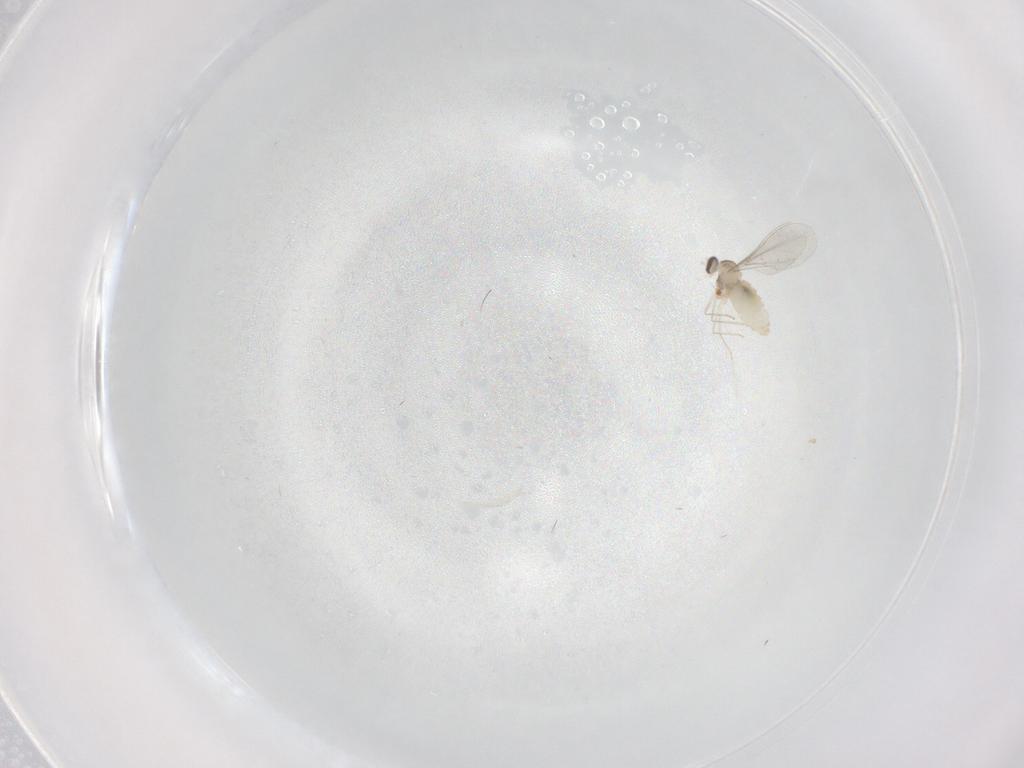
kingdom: Animalia
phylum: Arthropoda
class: Insecta
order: Diptera
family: Cecidomyiidae
